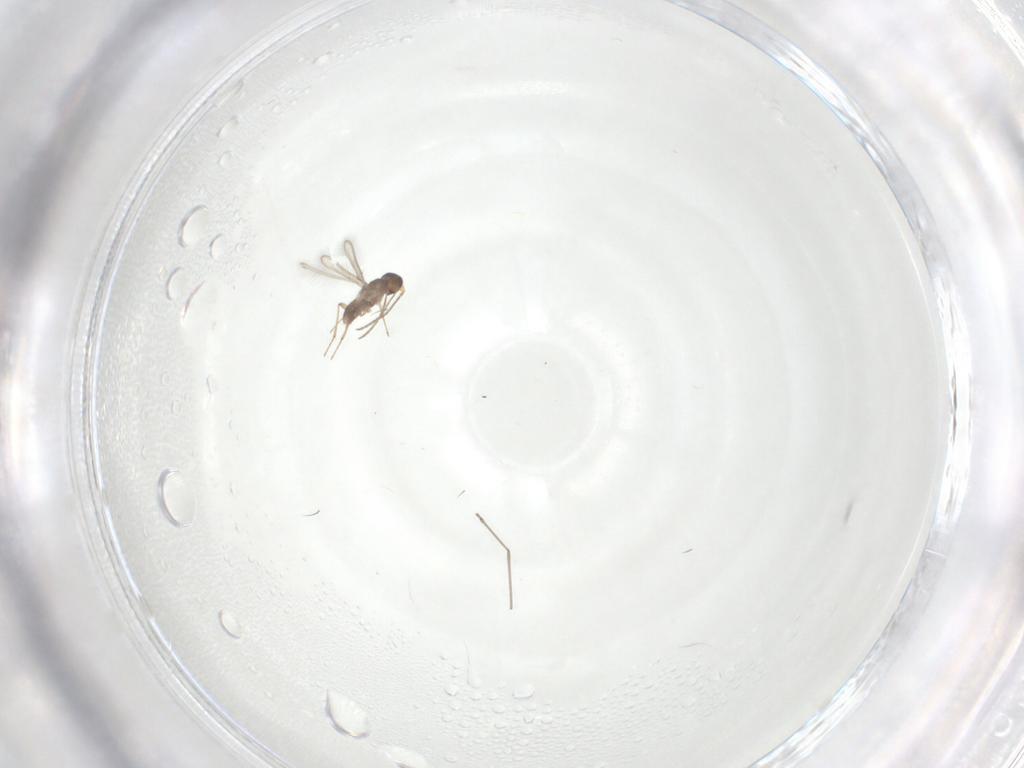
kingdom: Animalia
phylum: Arthropoda
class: Insecta
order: Hymenoptera
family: Mymaridae
